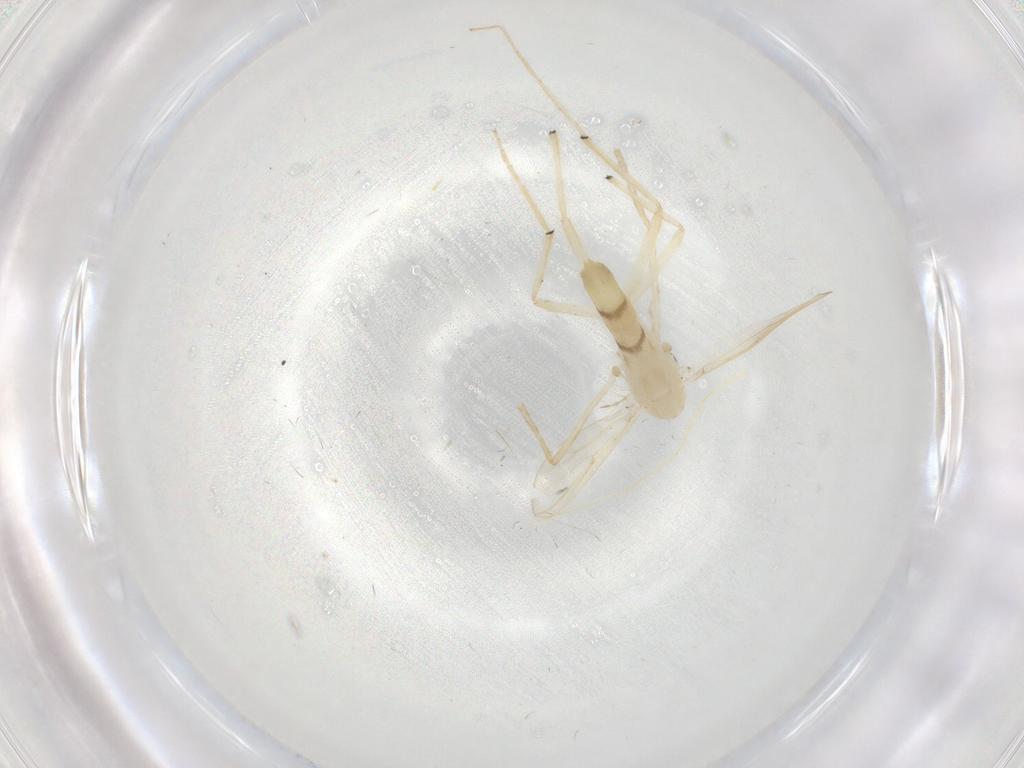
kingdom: Animalia
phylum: Arthropoda
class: Insecta
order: Diptera
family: Chironomidae
